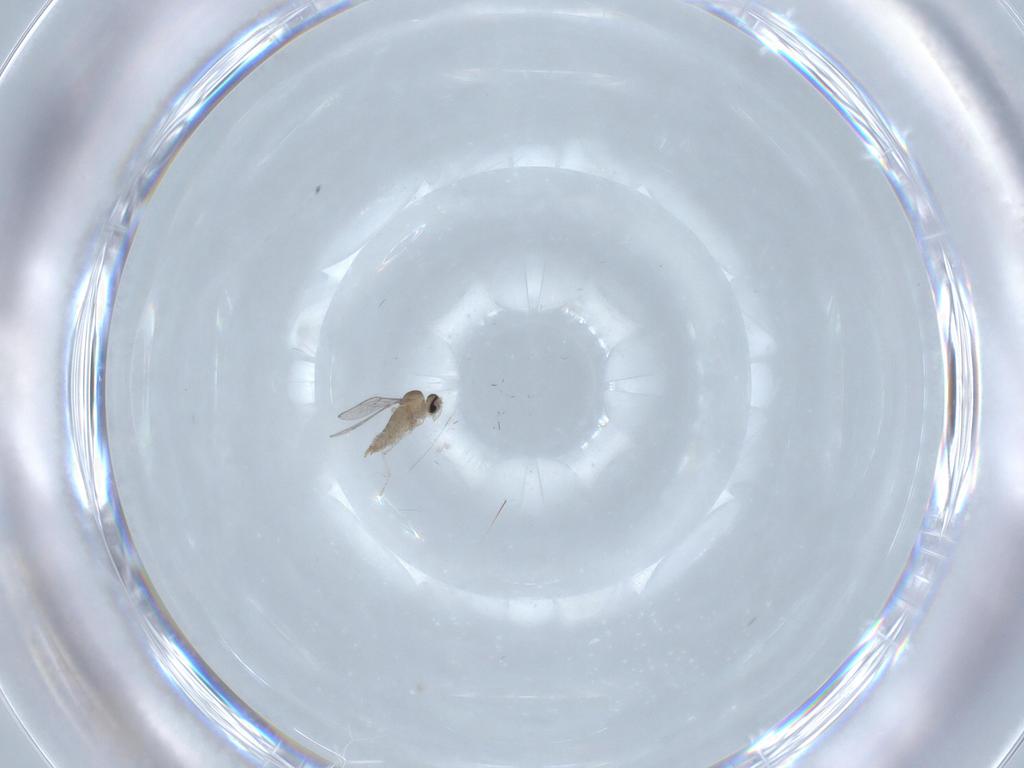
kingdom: Animalia
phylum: Arthropoda
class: Insecta
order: Diptera
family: Cecidomyiidae
